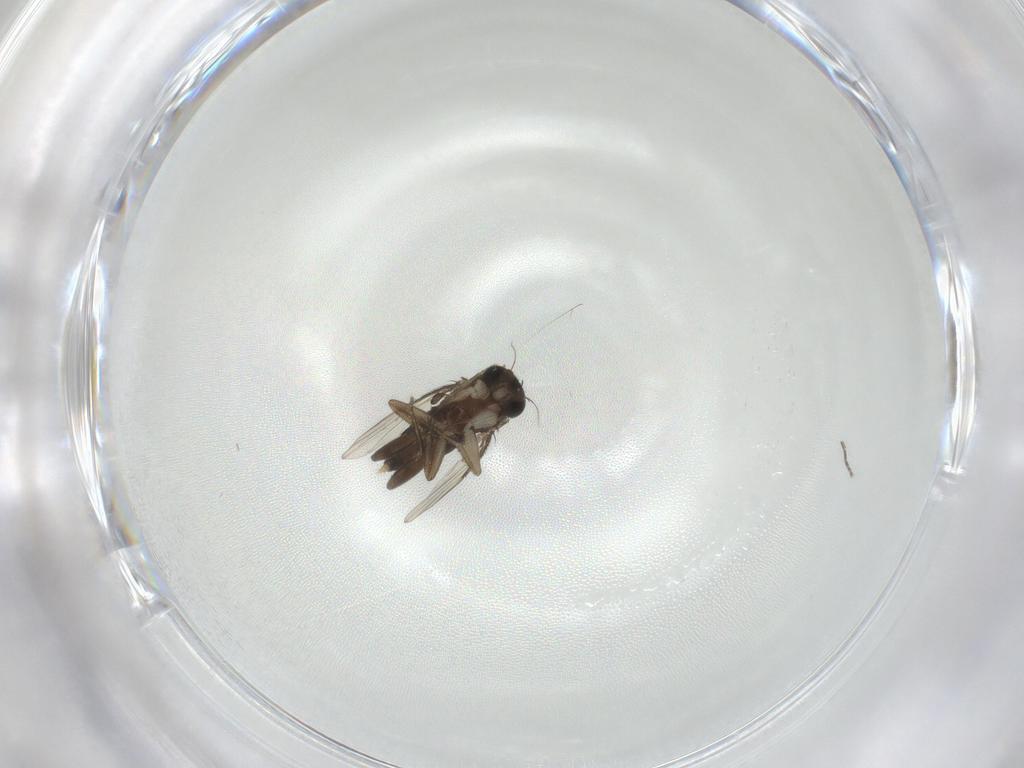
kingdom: Animalia
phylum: Arthropoda
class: Insecta
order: Diptera
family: Phoridae
